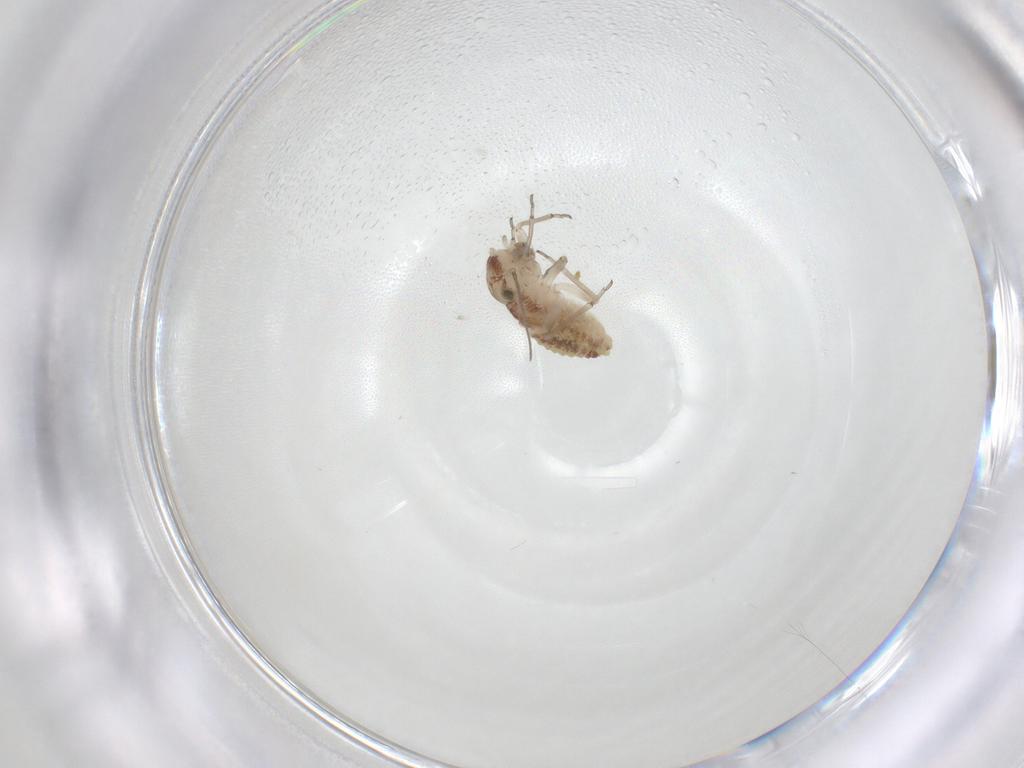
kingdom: Animalia
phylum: Arthropoda
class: Insecta
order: Psocodea
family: Psocidae
